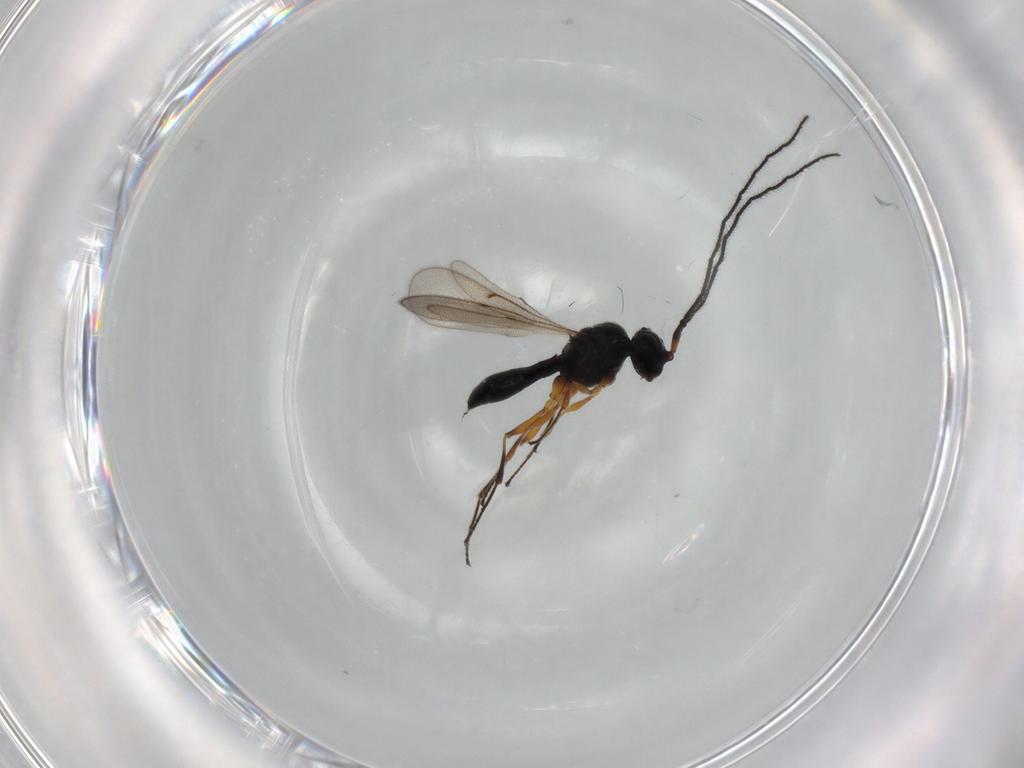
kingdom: Animalia
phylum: Arthropoda
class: Insecta
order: Hymenoptera
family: Scelionidae
